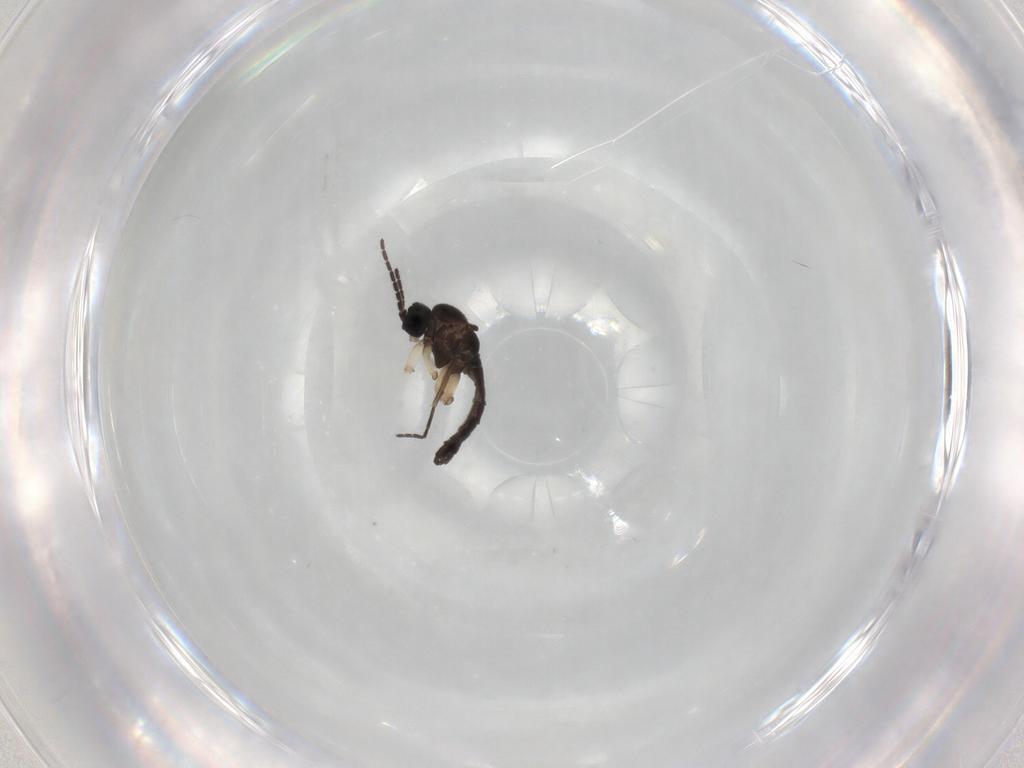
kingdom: Animalia
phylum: Arthropoda
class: Insecta
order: Diptera
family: Sciaridae
